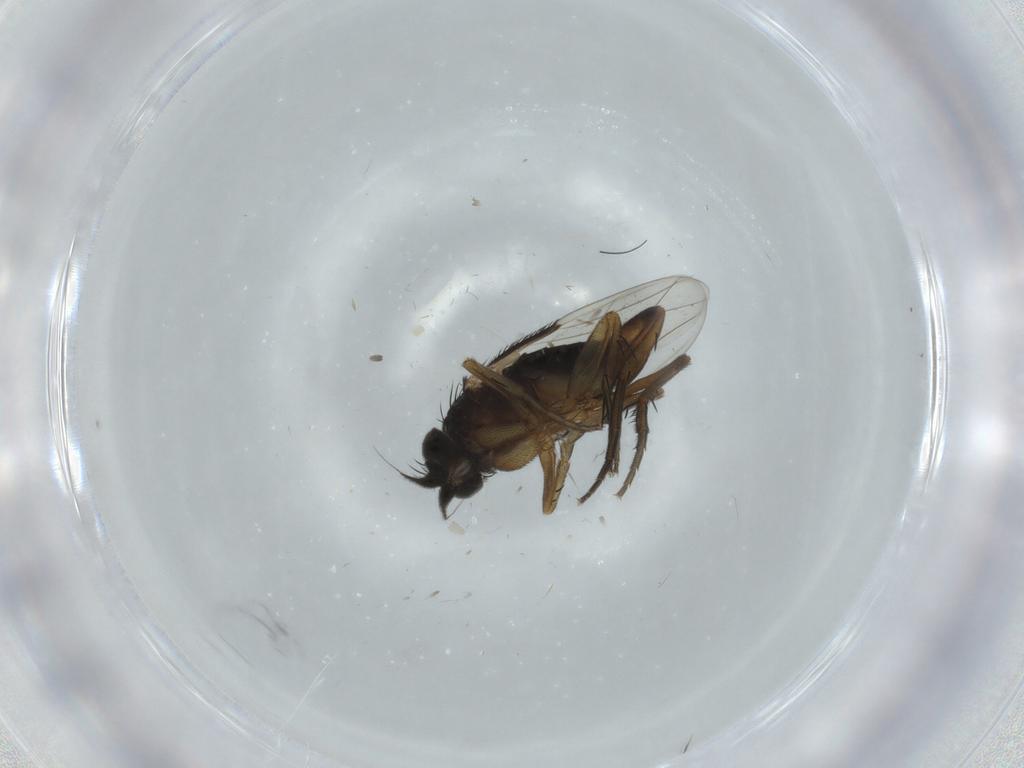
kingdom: Animalia
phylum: Arthropoda
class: Insecta
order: Diptera
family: Phoridae
